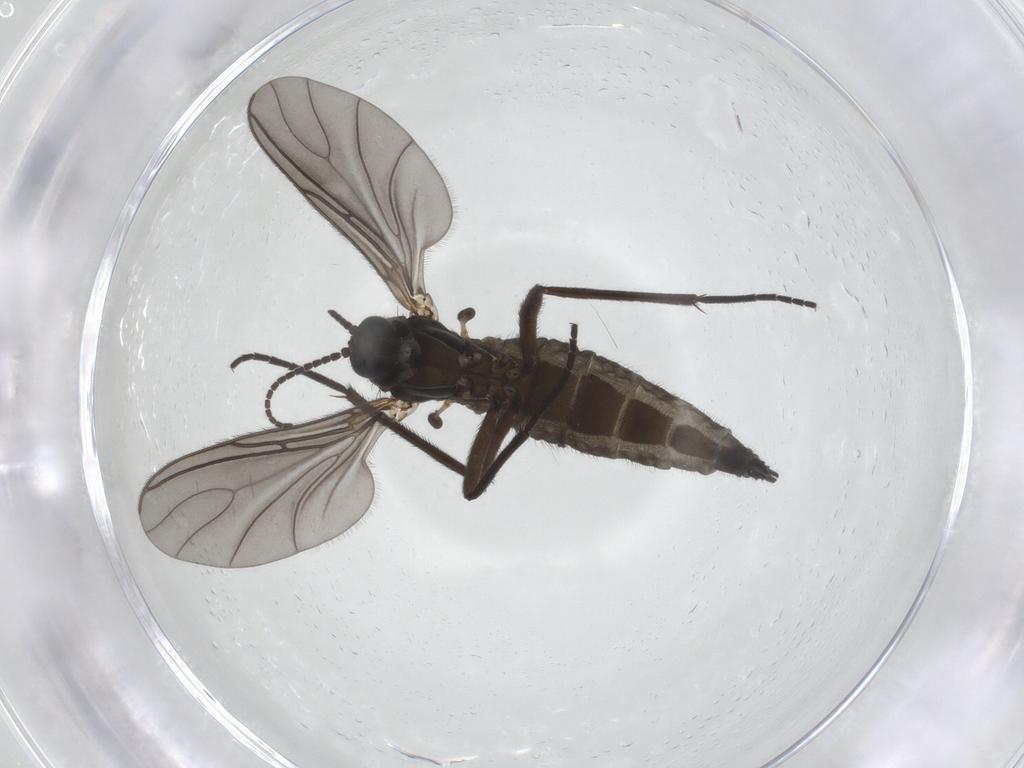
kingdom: Animalia
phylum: Arthropoda
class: Insecta
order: Diptera
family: Sciaridae
